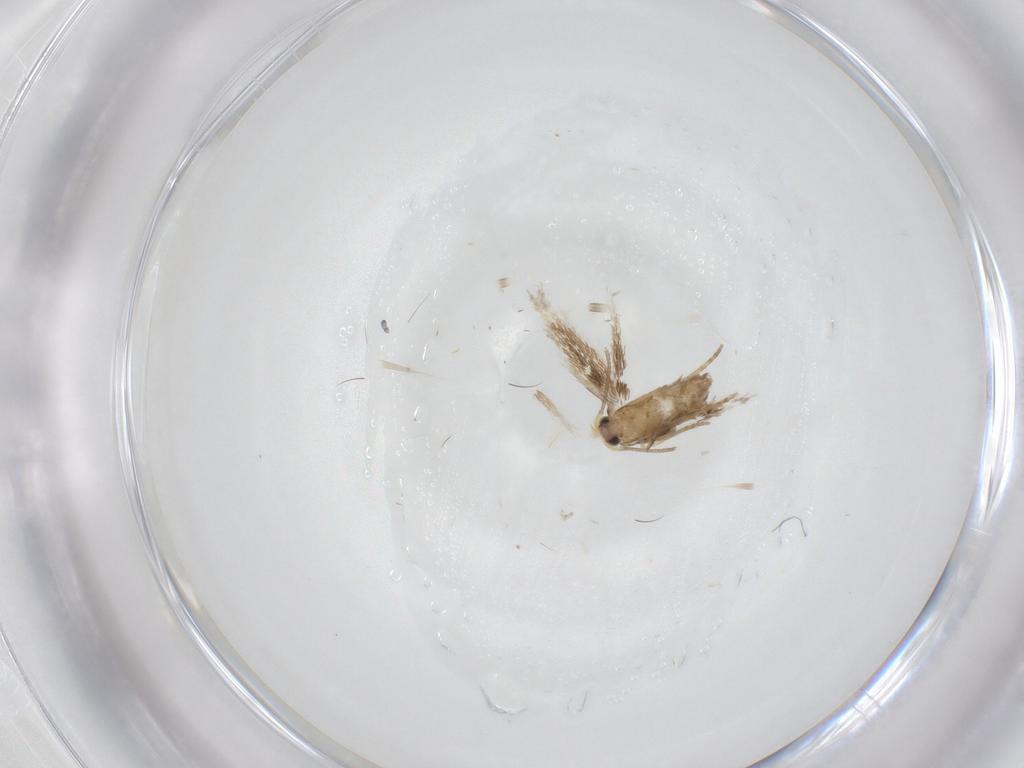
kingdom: Animalia
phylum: Arthropoda
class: Insecta
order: Lepidoptera
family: Nepticulidae
